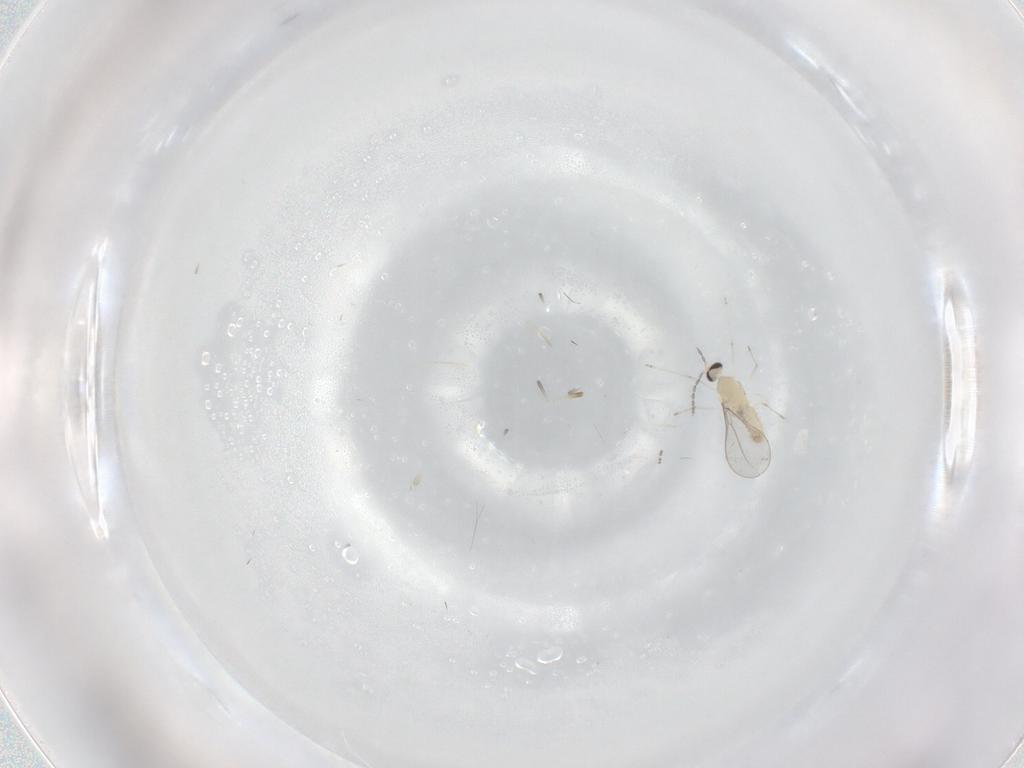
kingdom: Animalia
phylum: Arthropoda
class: Insecta
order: Diptera
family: Cecidomyiidae
